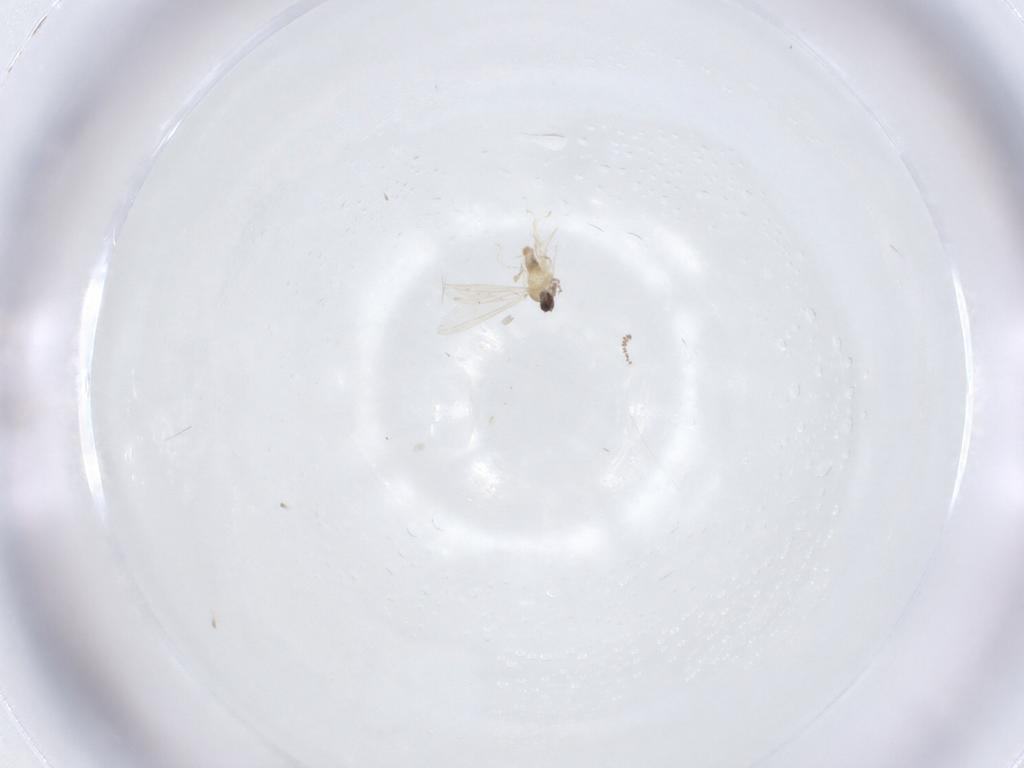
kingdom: Animalia
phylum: Arthropoda
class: Insecta
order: Diptera
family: Cecidomyiidae
